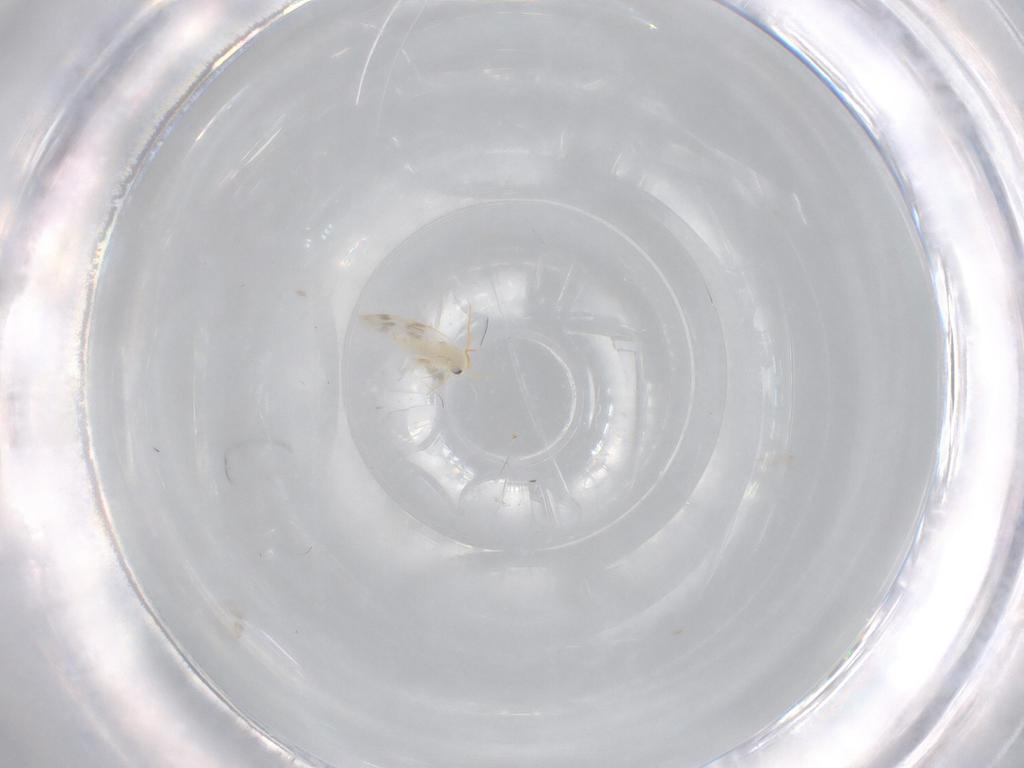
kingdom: Animalia
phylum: Arthropoda
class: Insecta
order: Hemiptera
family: Aleyrodidae
